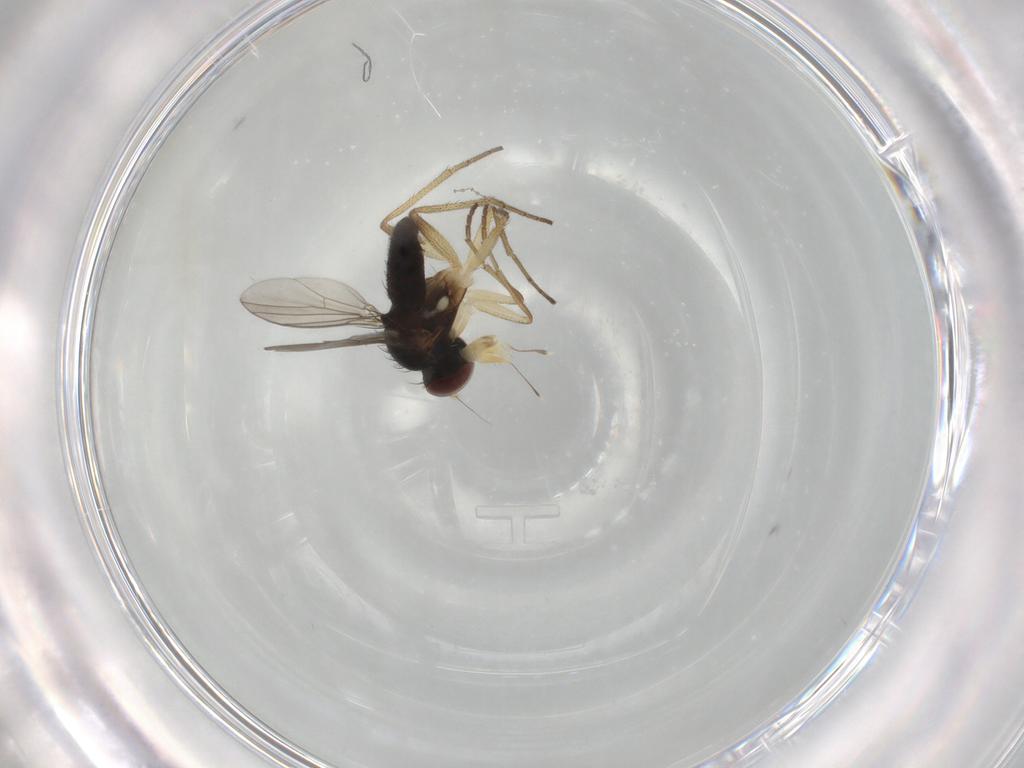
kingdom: Animalia
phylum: Arthropoda
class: Insecta
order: Diptera
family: Dolichopodidae
